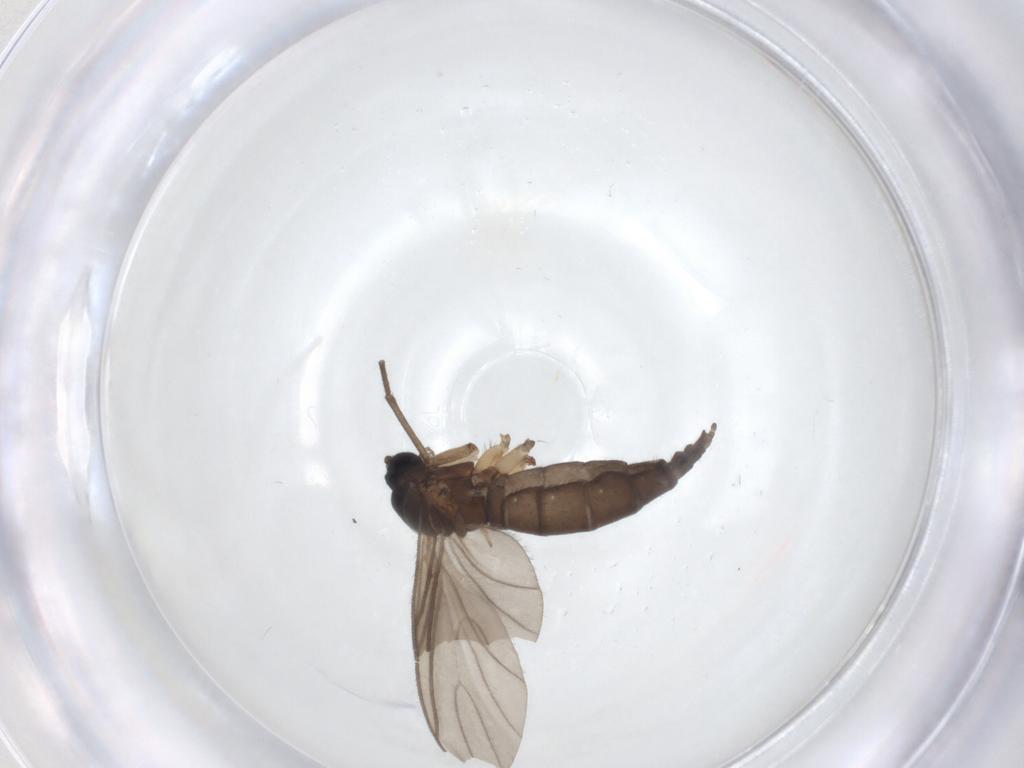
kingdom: Animalia
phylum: Arthropoda
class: Insecta
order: Diptera
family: Sciaridae
